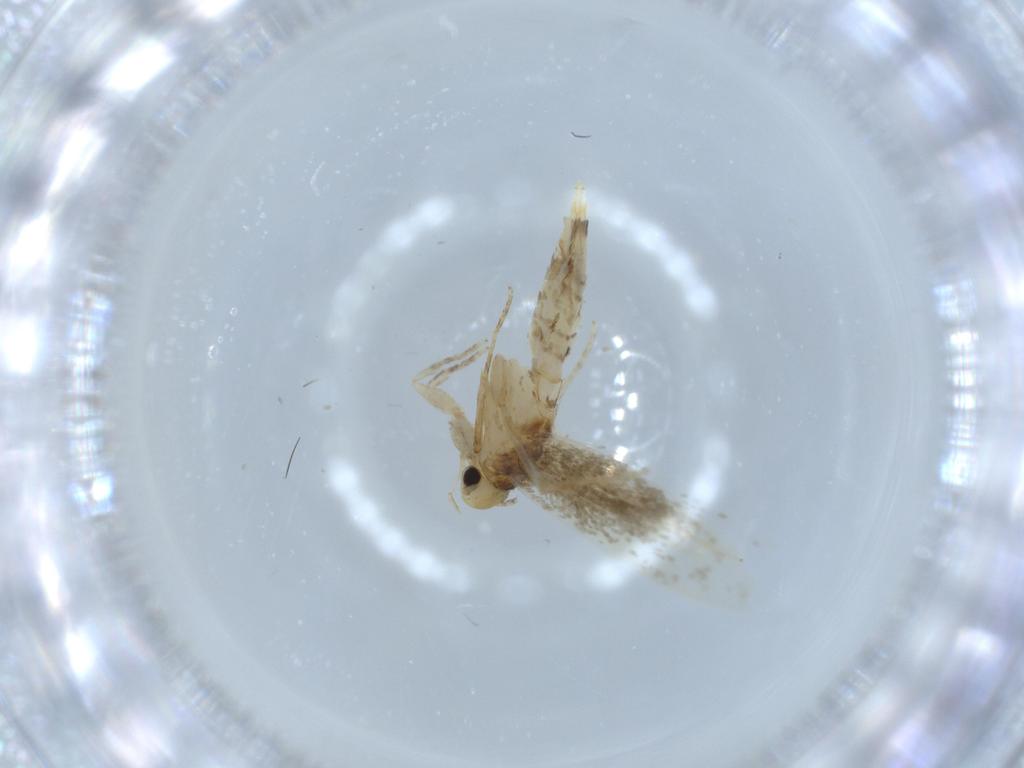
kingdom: Animalia
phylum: Arthropoda
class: Insecta
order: Lepidoptera
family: Tineidae
